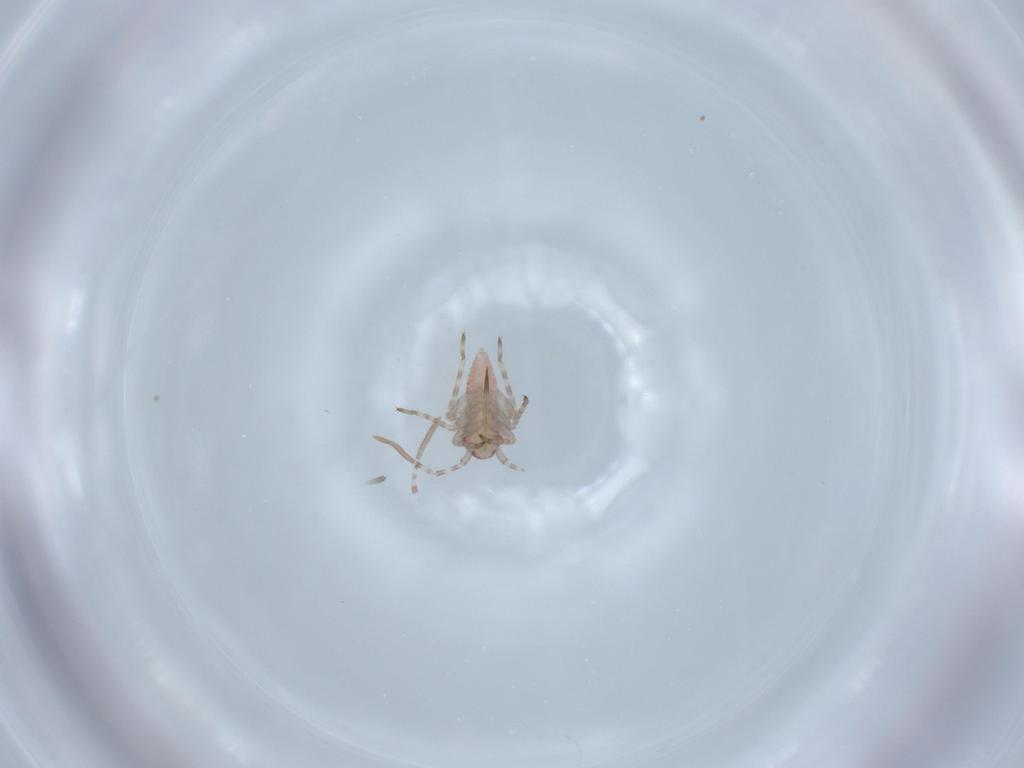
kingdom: Animalia
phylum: Arthropoda
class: Insecta
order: Hemiptera
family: Miridae
